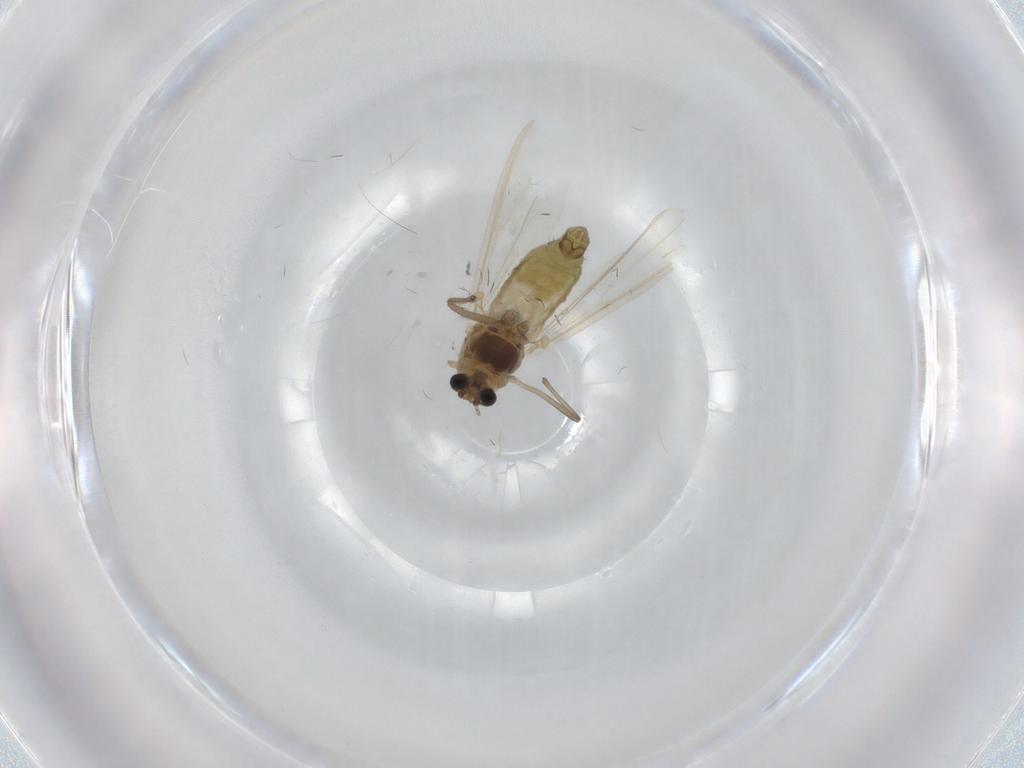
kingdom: Animalia
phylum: Arthropoda
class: Insecta
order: Diptera
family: Chironomidae
